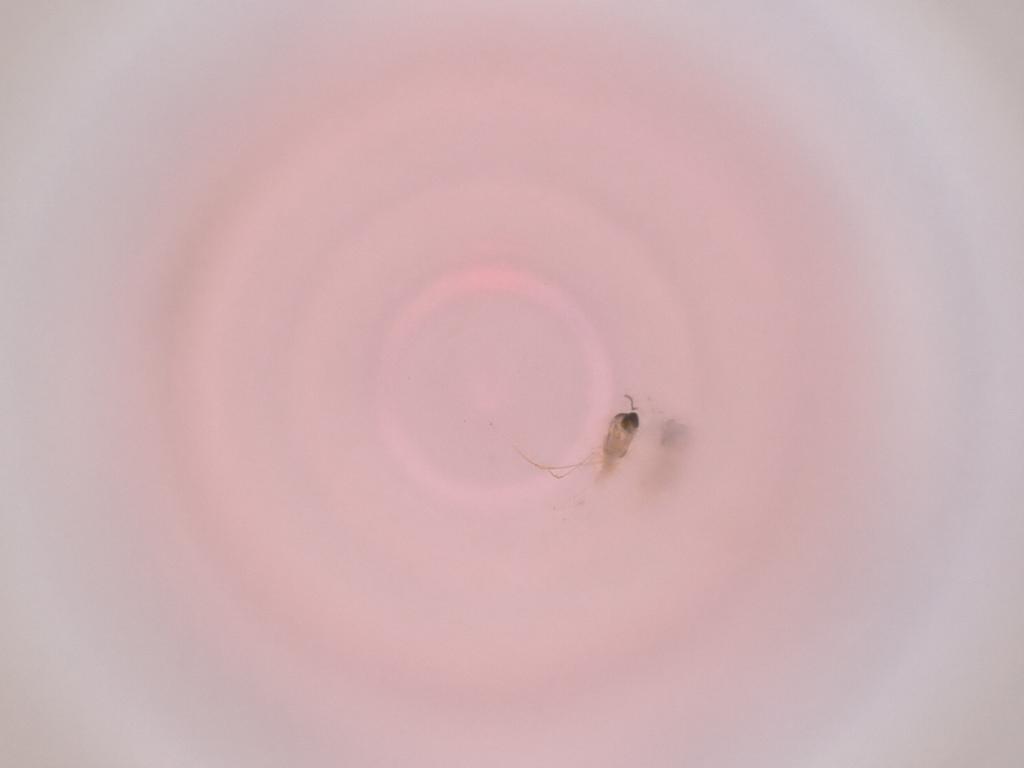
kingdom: Animalia
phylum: Arthropoda
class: Insecta
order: Diptera
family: Cecidomyiidae
